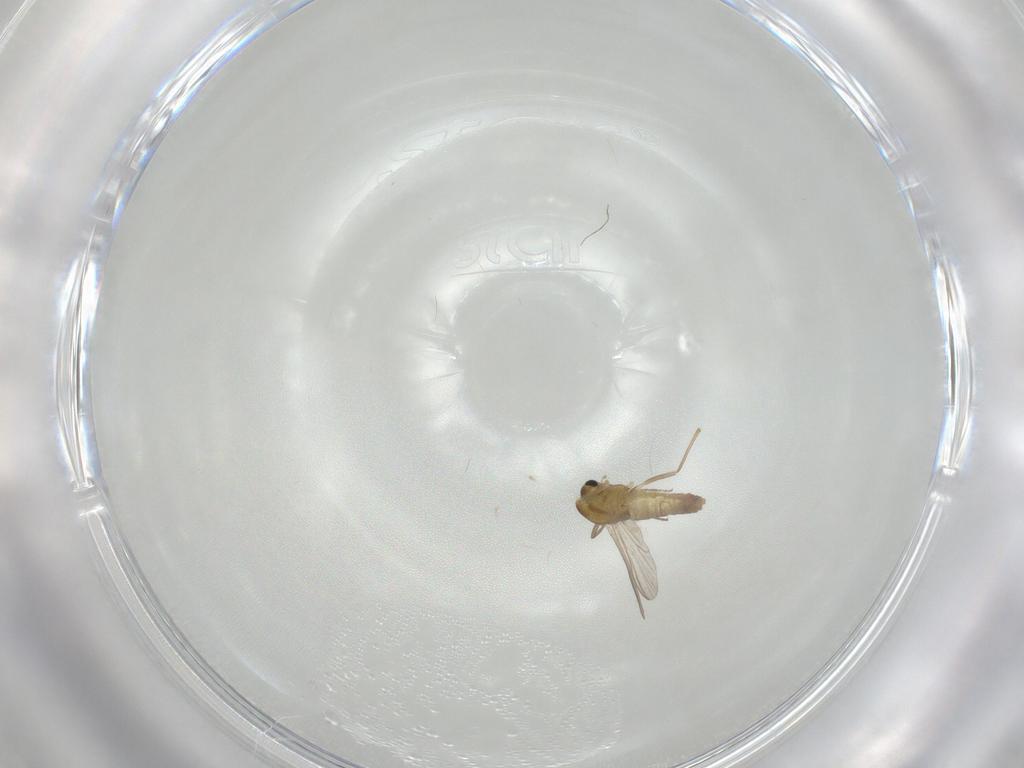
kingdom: Animalia
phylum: Arthropoda
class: Insecta
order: Diptera
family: Chironomidae
